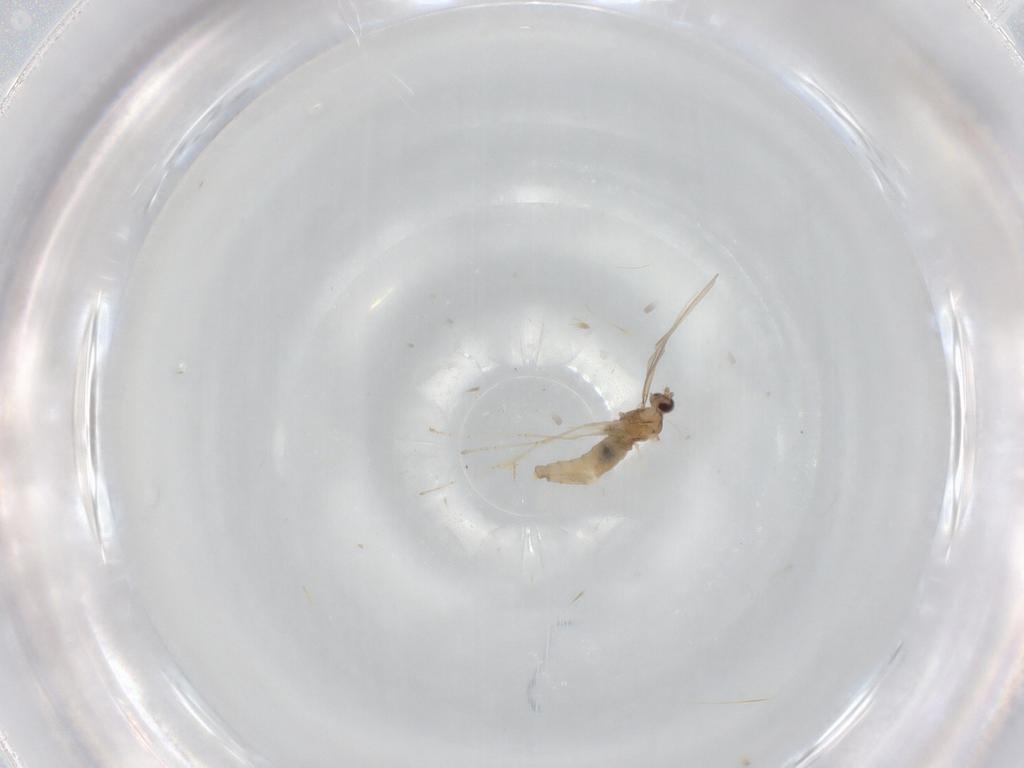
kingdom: Animalia
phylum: Arthropoda
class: Insecta
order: Diptera
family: Cecidomyiidae
